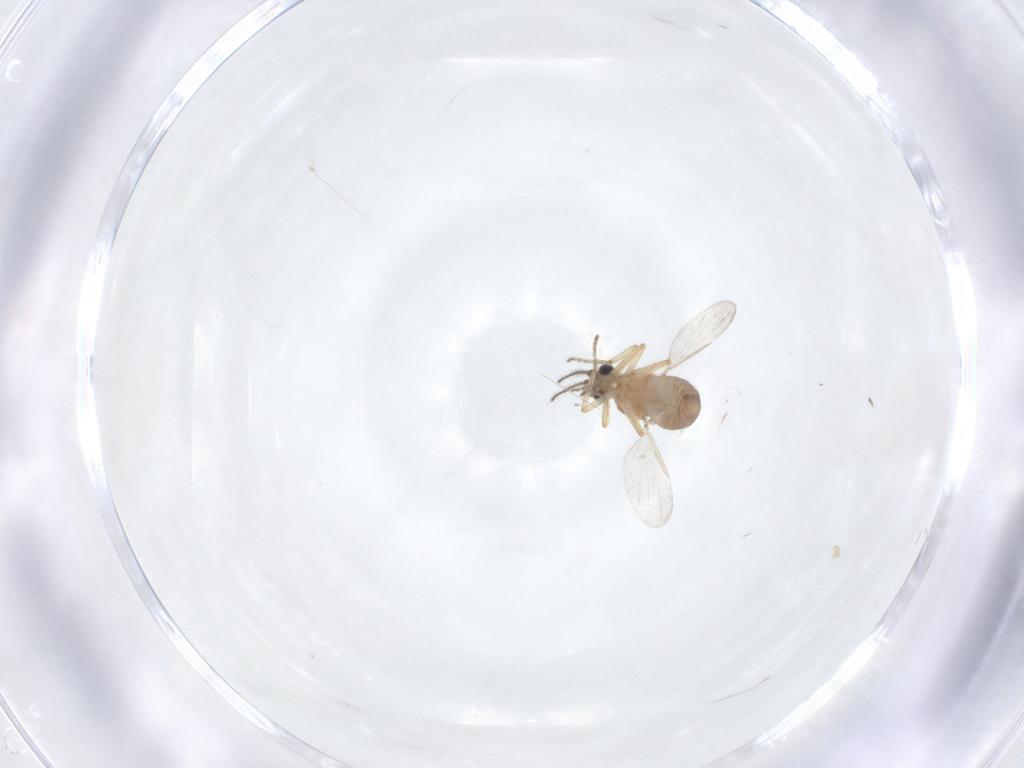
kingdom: Animalia
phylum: Arthropoda
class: Insecta
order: Diptera
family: Ceratopogonidae
